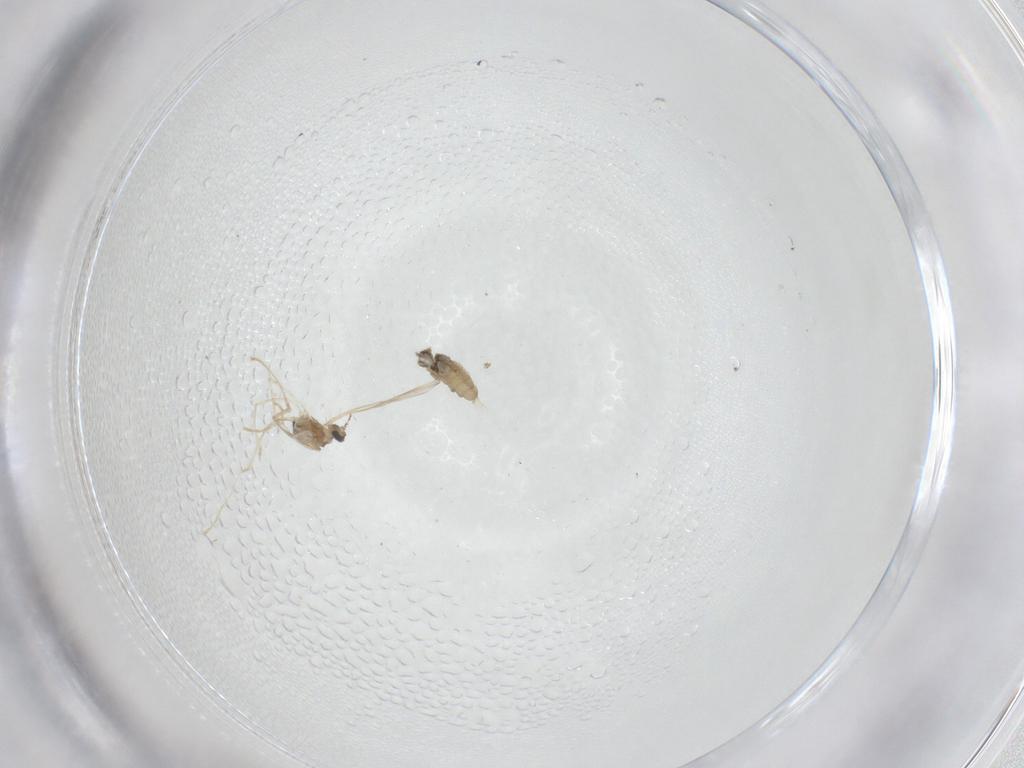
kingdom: Animalia
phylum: Arthropoda
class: Insecta
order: Diptera
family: Cecidomyiidae
